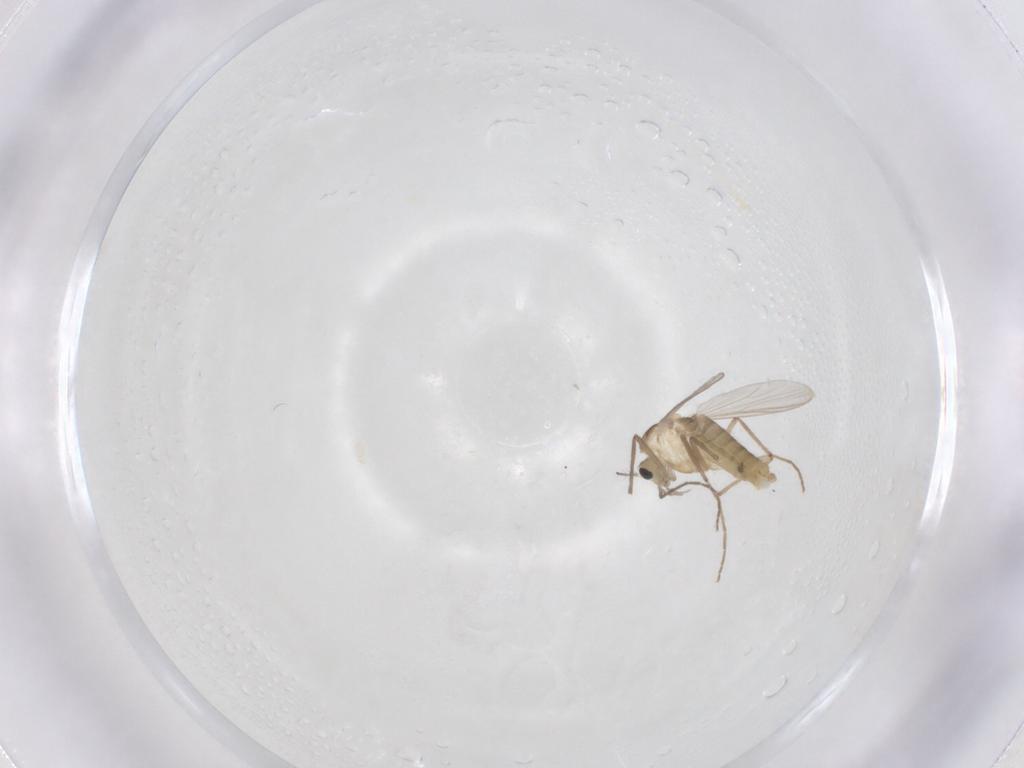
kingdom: Animalia
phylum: Arthropoda
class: Insecta
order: Diptera
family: Chironomidae
